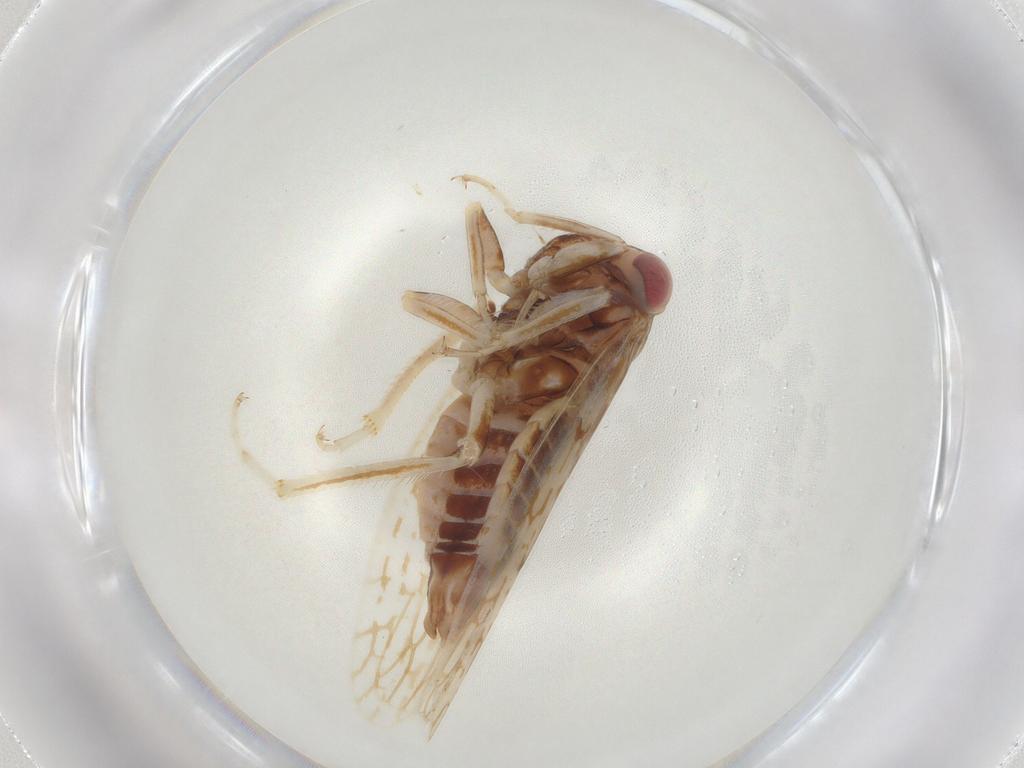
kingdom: Animalia
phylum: Arthropoda
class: Insecta
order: Hemiptera
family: Cicadellidae
